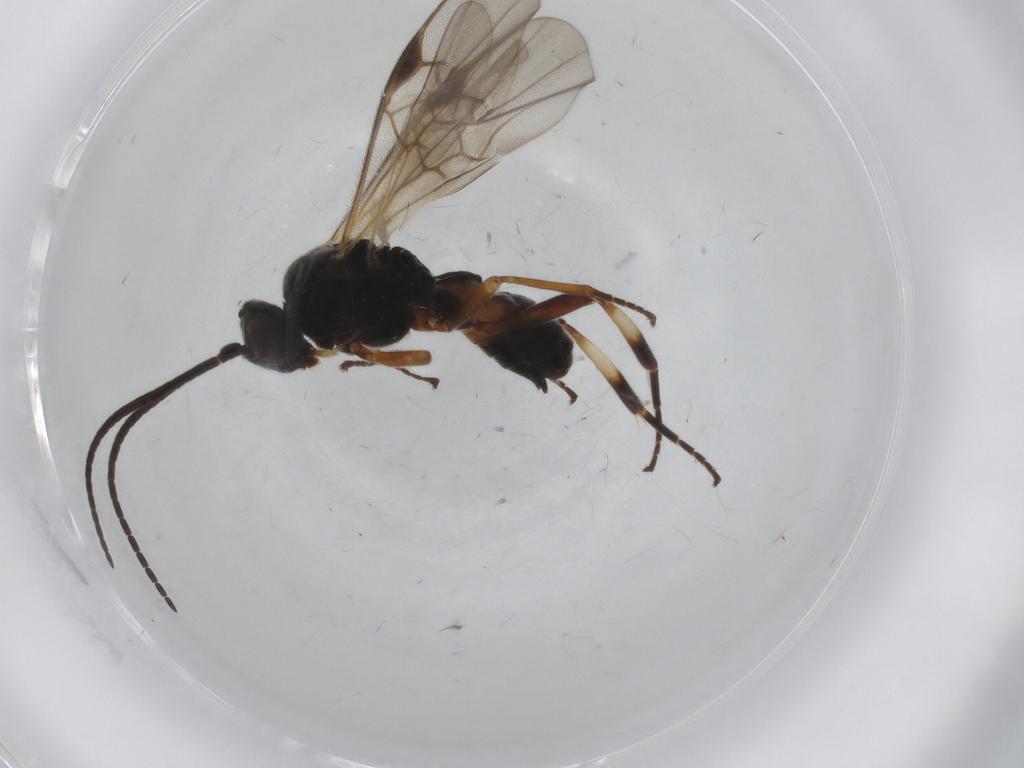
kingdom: Animalia
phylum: Arthropoda
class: Insecta
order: Hymenoptera
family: Braconidae
